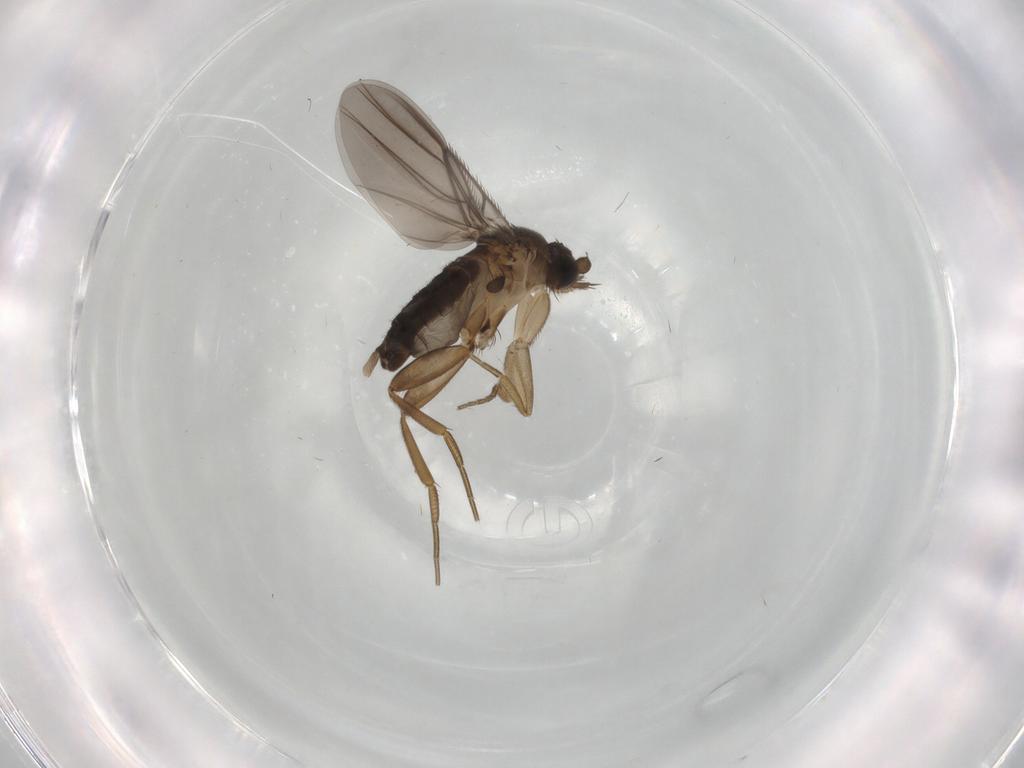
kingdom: Animalia
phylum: Arthropoda
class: Insecta
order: Diptera
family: Phoridae
